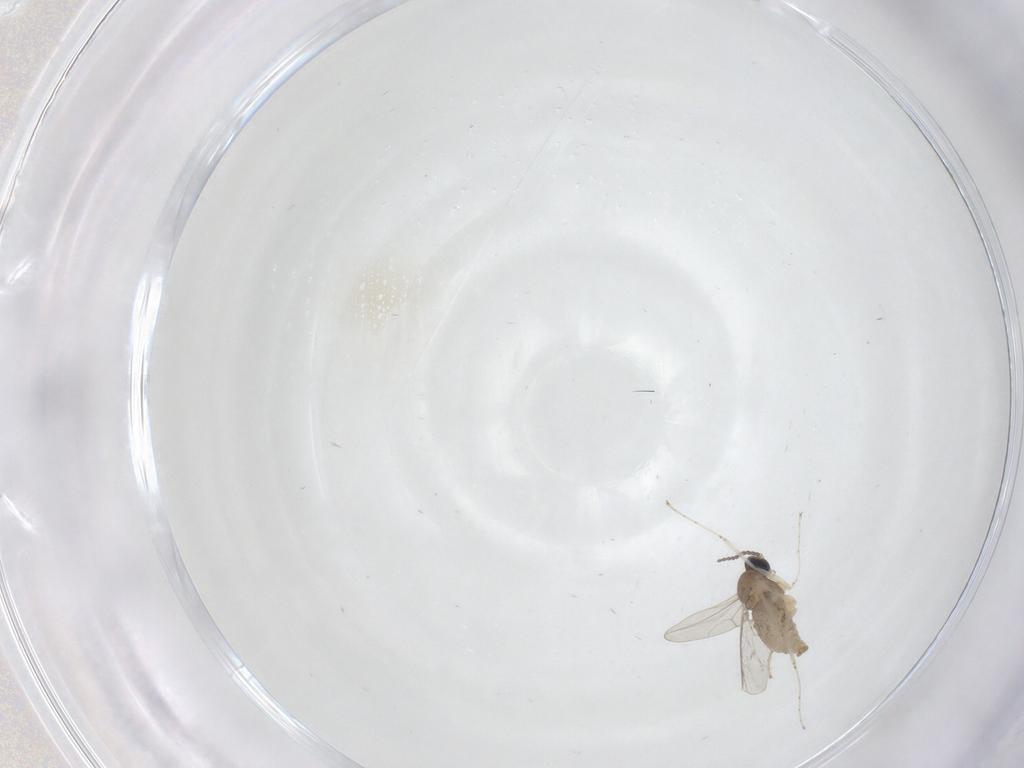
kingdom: Animalia
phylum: Arthropoda
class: Insecta
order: Diptera
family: Cecidomyiidae
